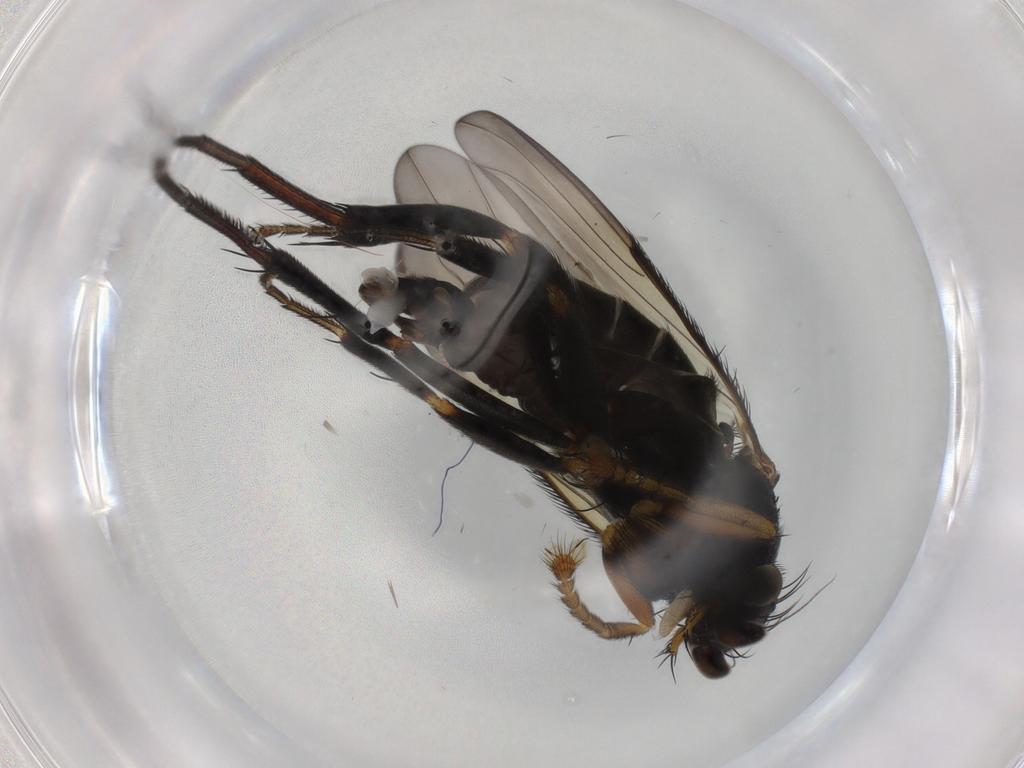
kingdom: Animalia
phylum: Arthropoda
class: Insecta
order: Diptera
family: Phoridae
